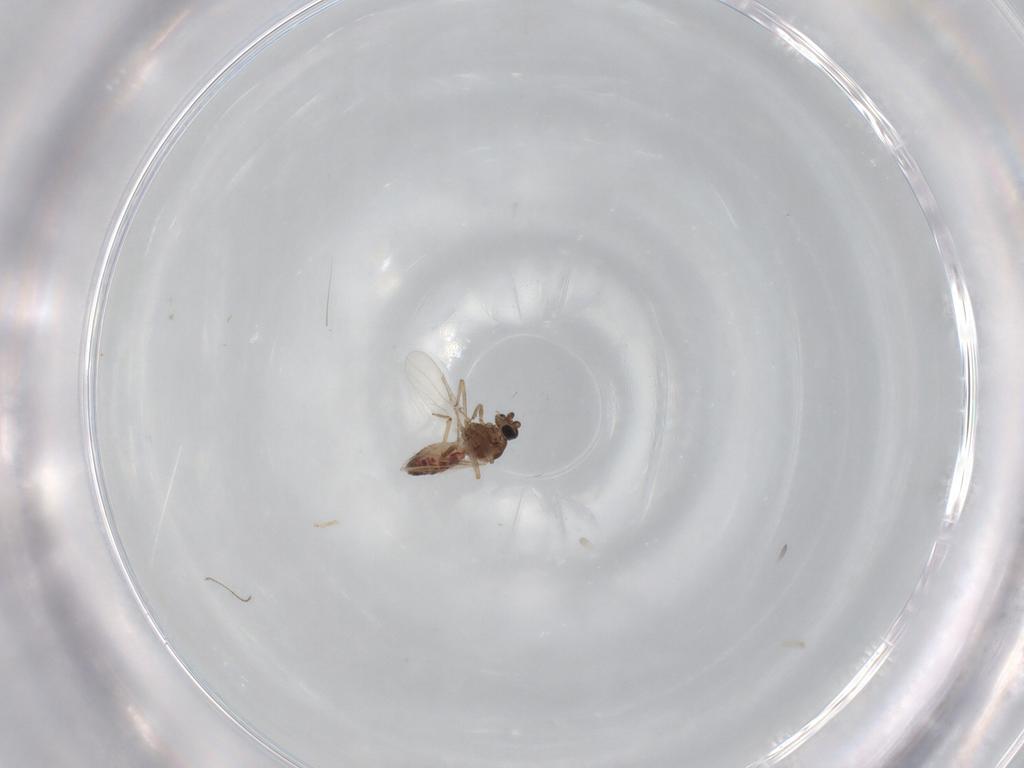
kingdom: Animalia
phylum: Arthropoda
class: Insecta
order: Diptera
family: Ceratopogonidae
